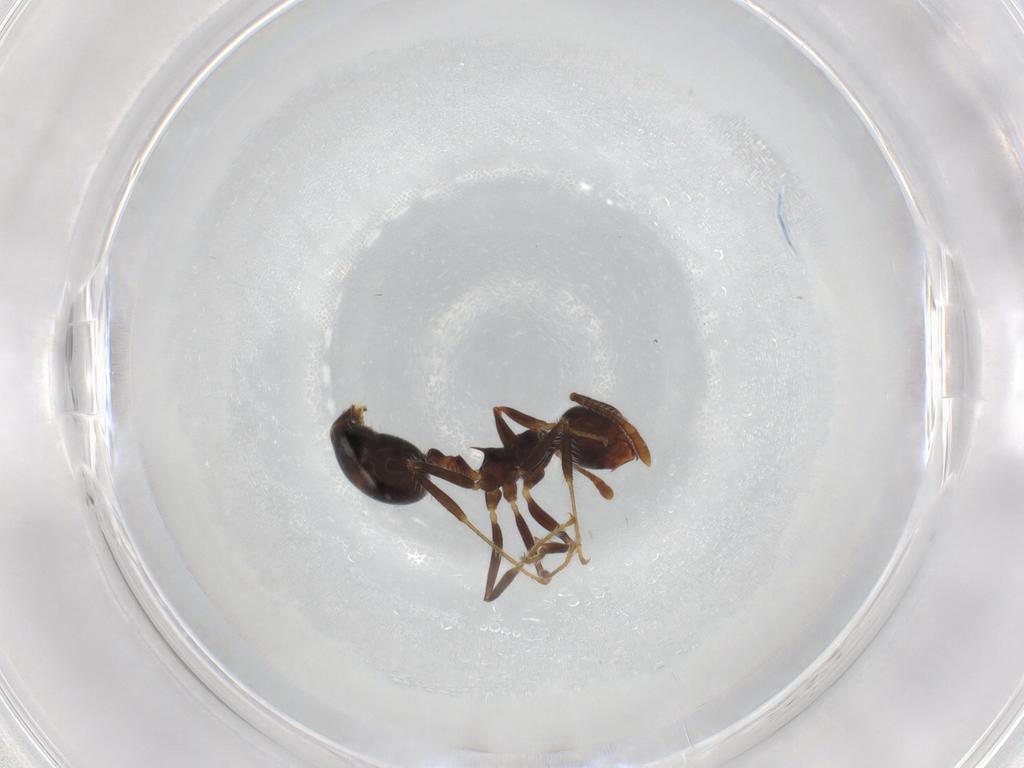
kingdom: Animalia
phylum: Arthropoda
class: Insecta
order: Hymenoptera
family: Formicidae
